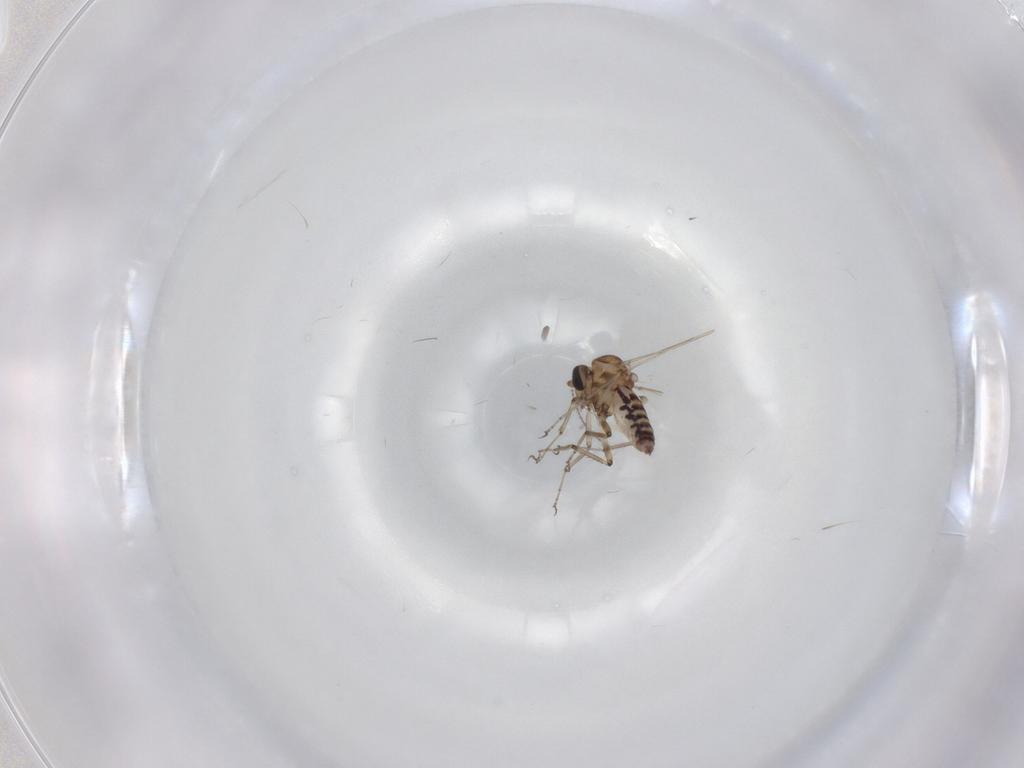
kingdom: Animalia
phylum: Arthropoda
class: Insecta
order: Diptera
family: Ceratopogonidae
